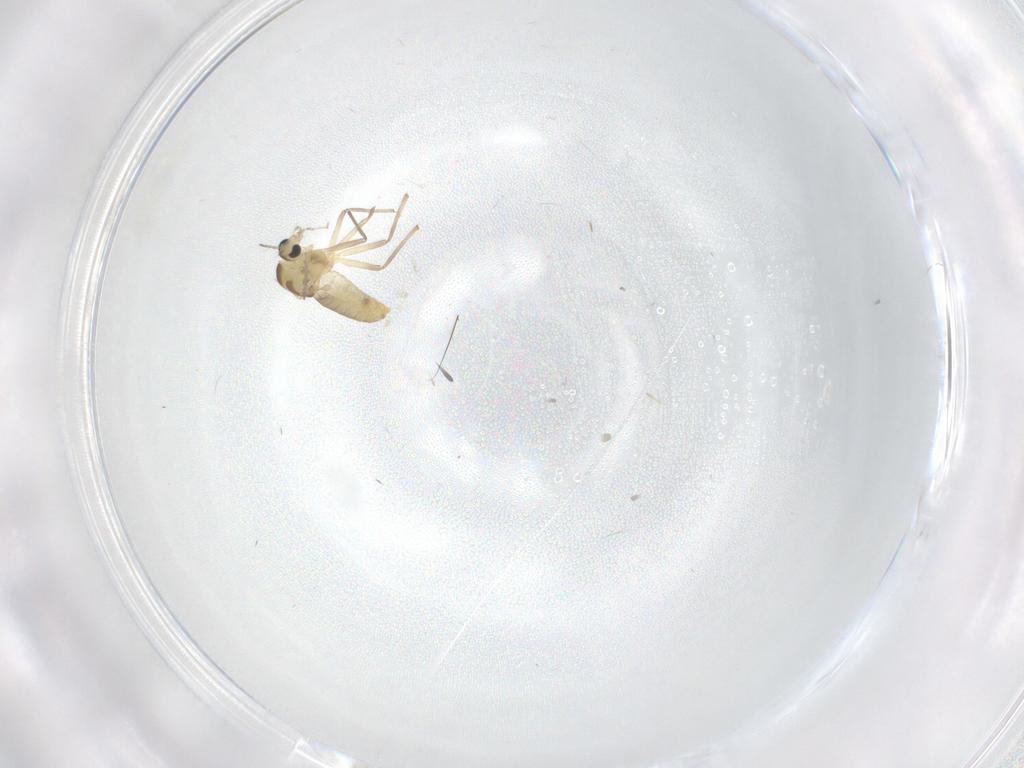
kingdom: Animalia
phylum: Arthropoda
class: Insecta
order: Diptera
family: Chironomidae
